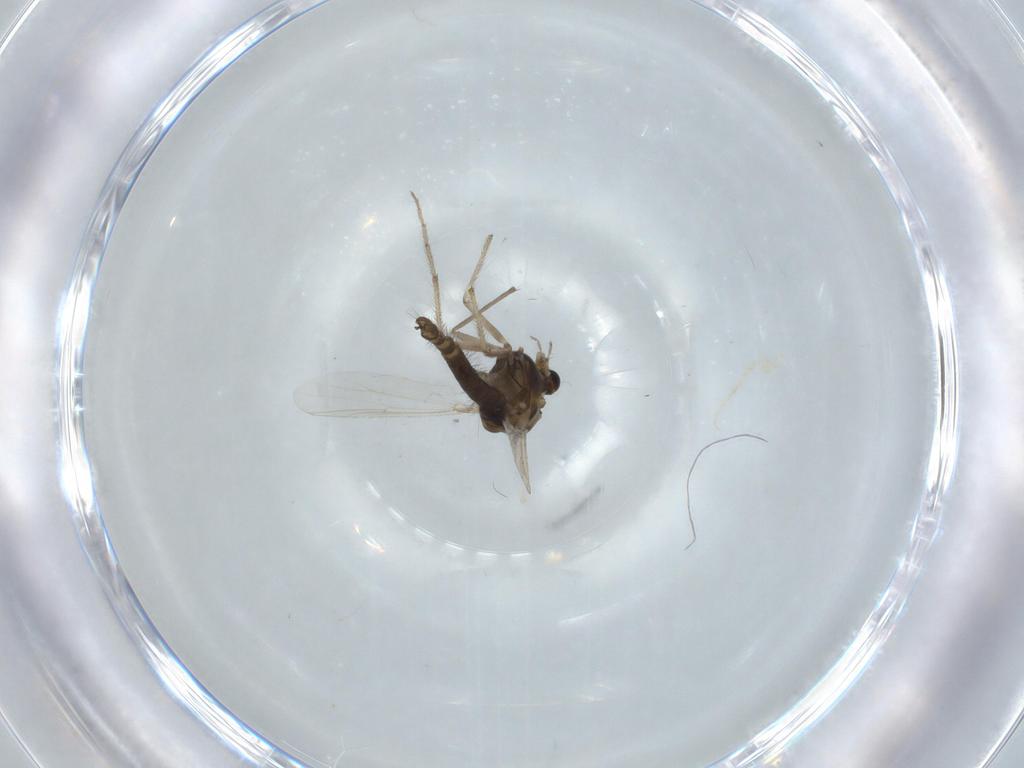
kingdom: Animalia
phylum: Arthropoda
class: Insecta
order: Diptera
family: Chironomidae
